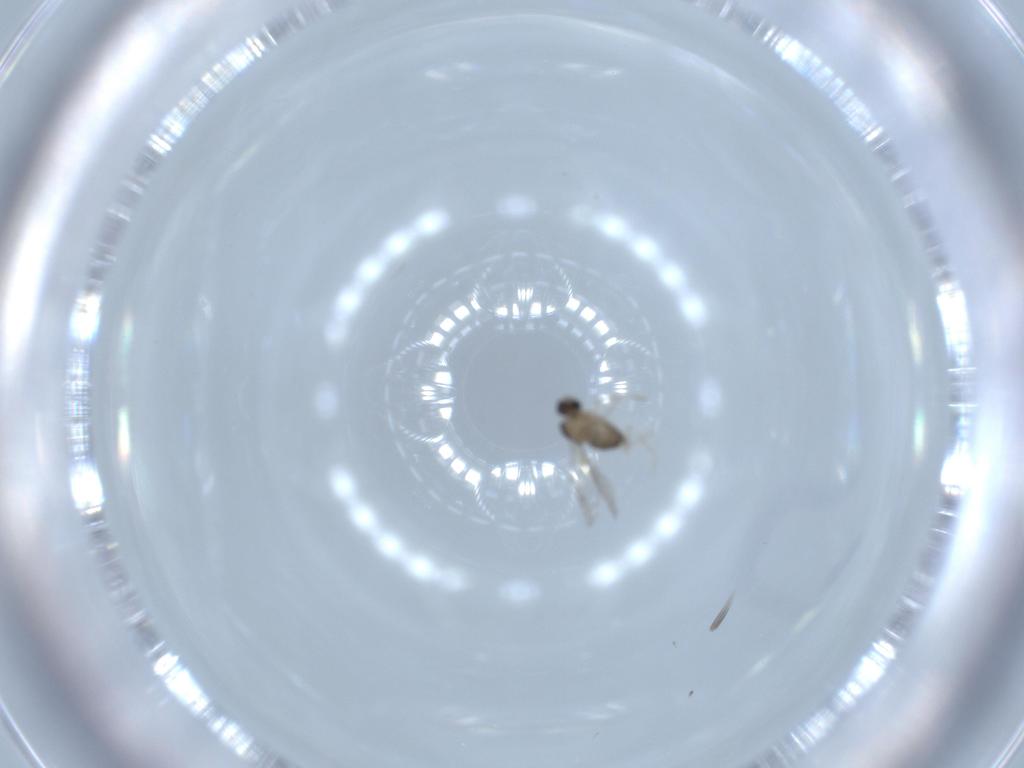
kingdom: Animalia
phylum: Arthropoda
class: Insecta
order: Diptera
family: Cecidomyiidae
